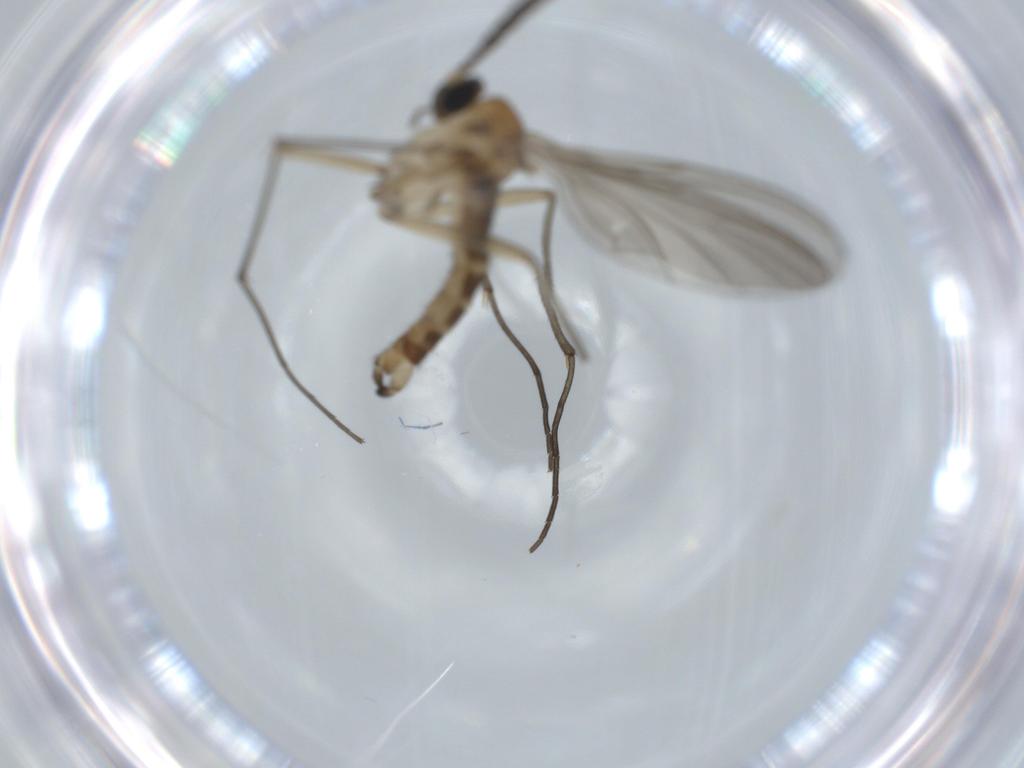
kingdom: Animalia
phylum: Arthropoda
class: Insecta
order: Diptera
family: Sciaridae
